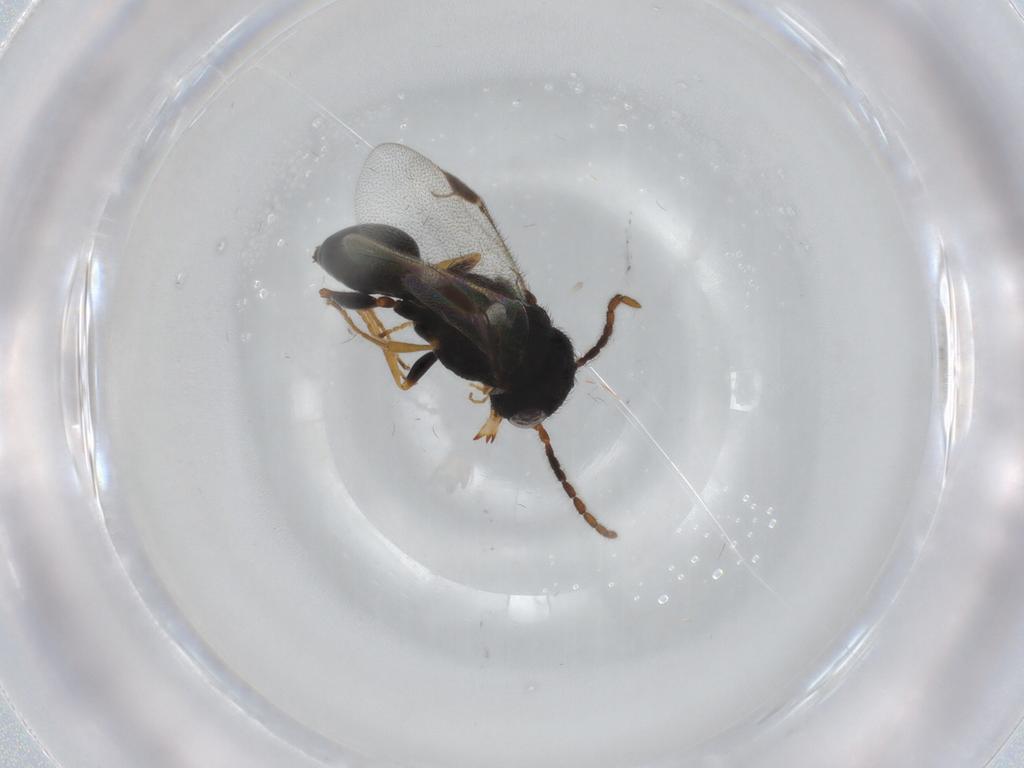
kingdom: Animalia
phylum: Arthropoda
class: Insecta
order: Hymenoptera
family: Dryinidae
